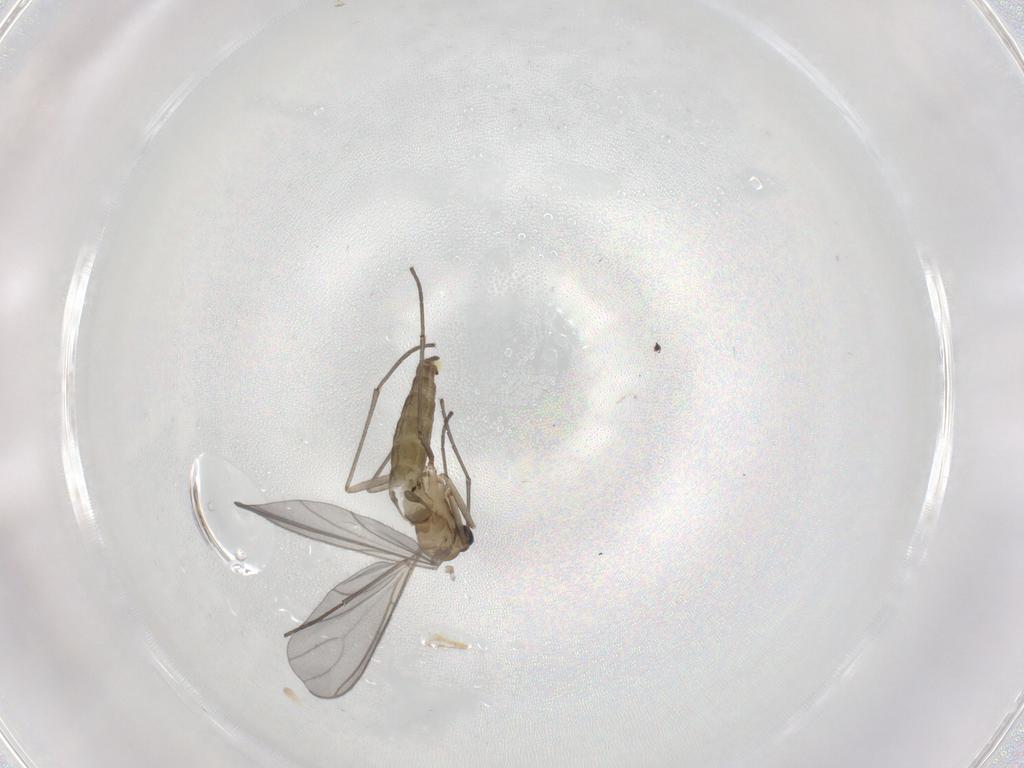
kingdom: Animalia
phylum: Arthropoda
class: Insecta
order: Diptera
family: Sciaridae
